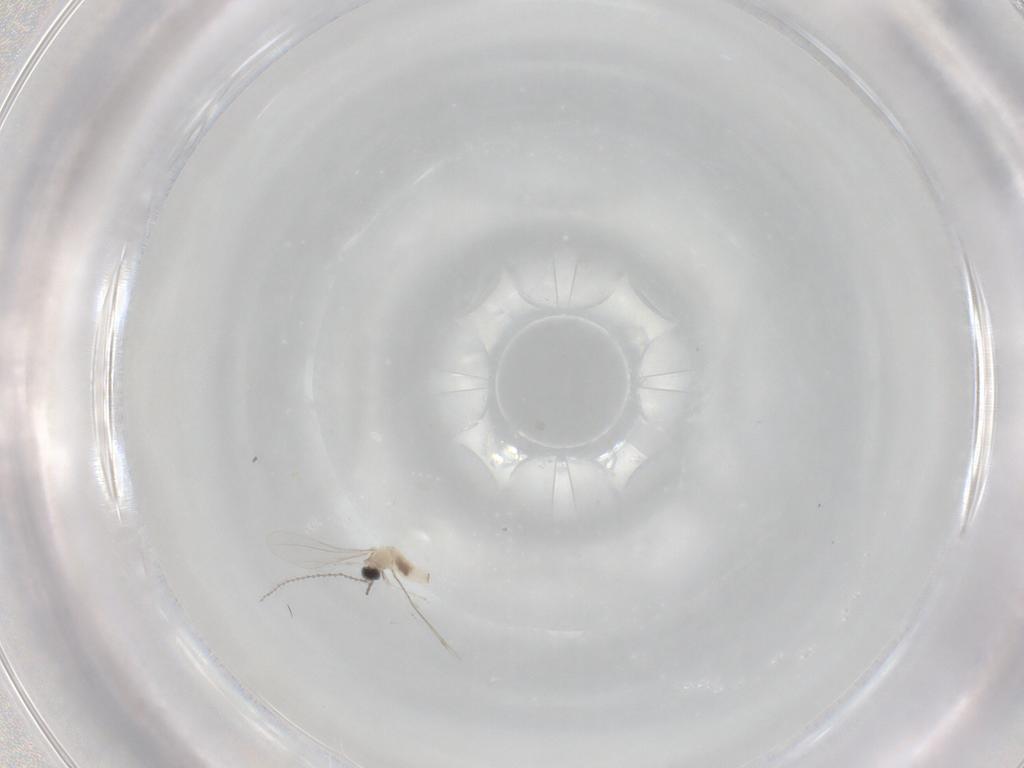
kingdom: Animalia
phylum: Arthropoda
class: Insecta
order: Diptera
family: Cecidomyiidae
